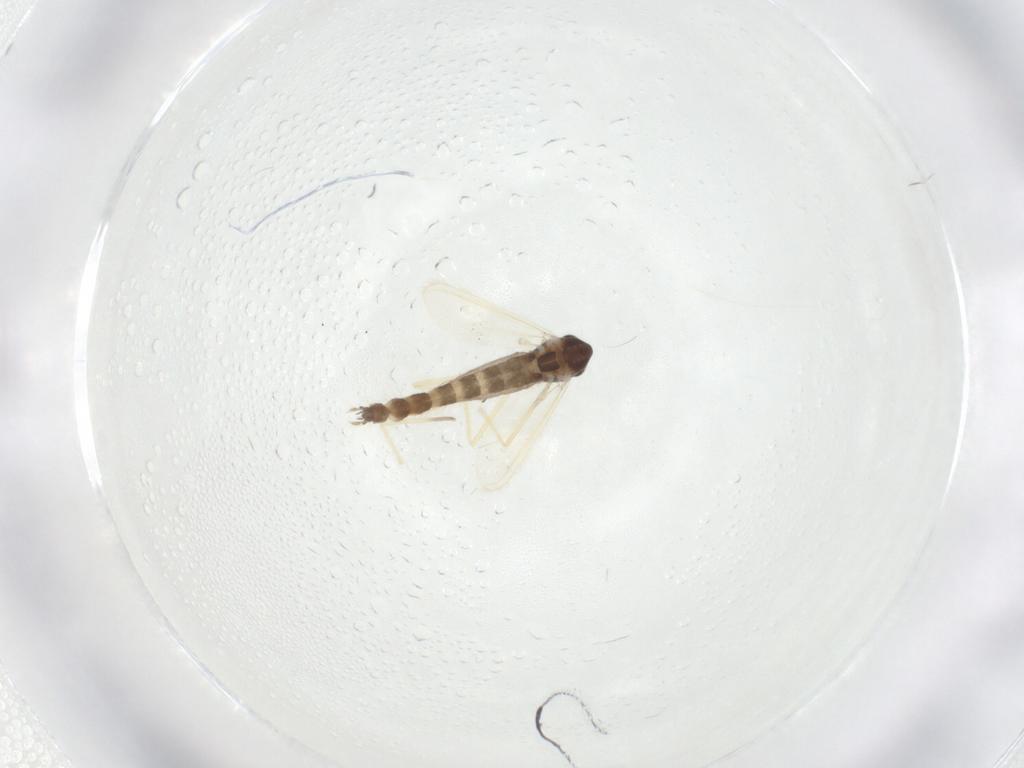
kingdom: Animalia
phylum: Arthropoda
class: Insecta
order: Diptera
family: Chironomidae
